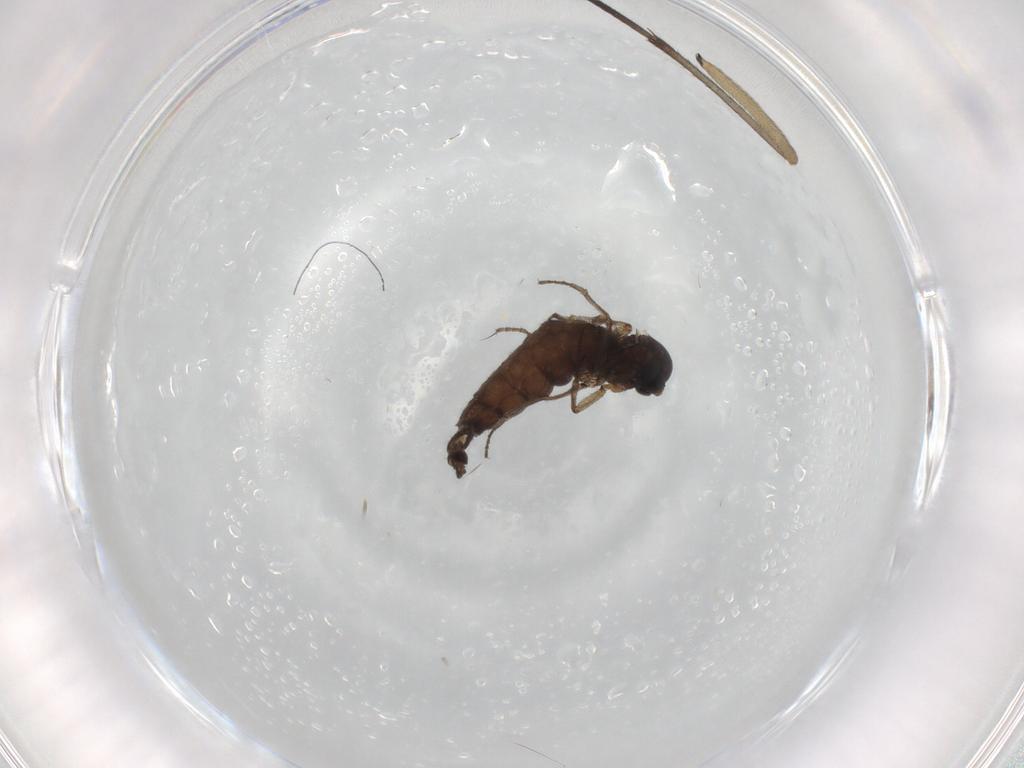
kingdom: Animalia
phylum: Arthropoda
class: Insecta
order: Diptera
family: Sciaridae
